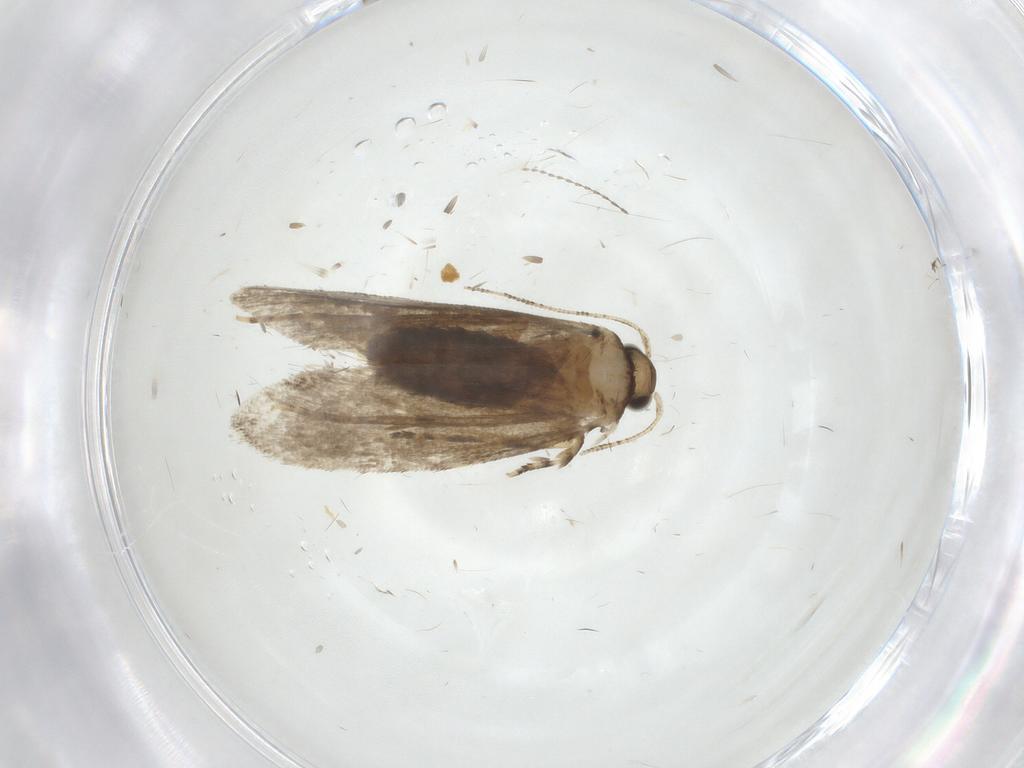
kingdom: Animalia
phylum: Arthropoda
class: Insecta
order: Lepidoptera
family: Tineidae
